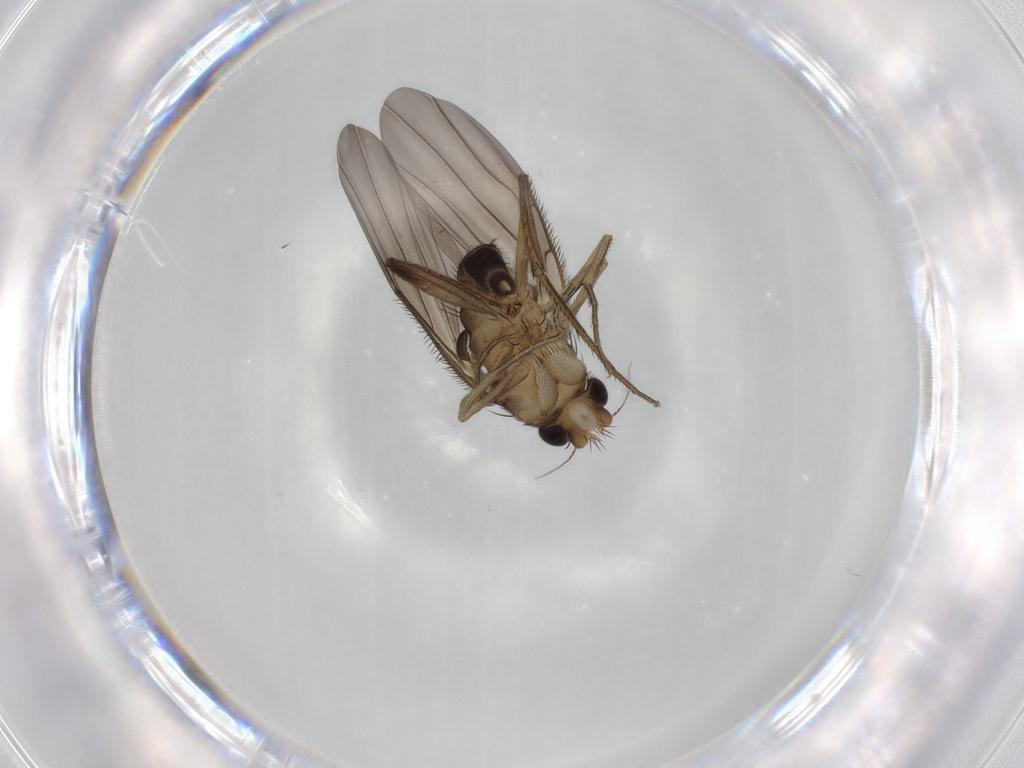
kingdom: Animalia
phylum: Arthropoda
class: Insecta
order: Diptera
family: Phoridae
